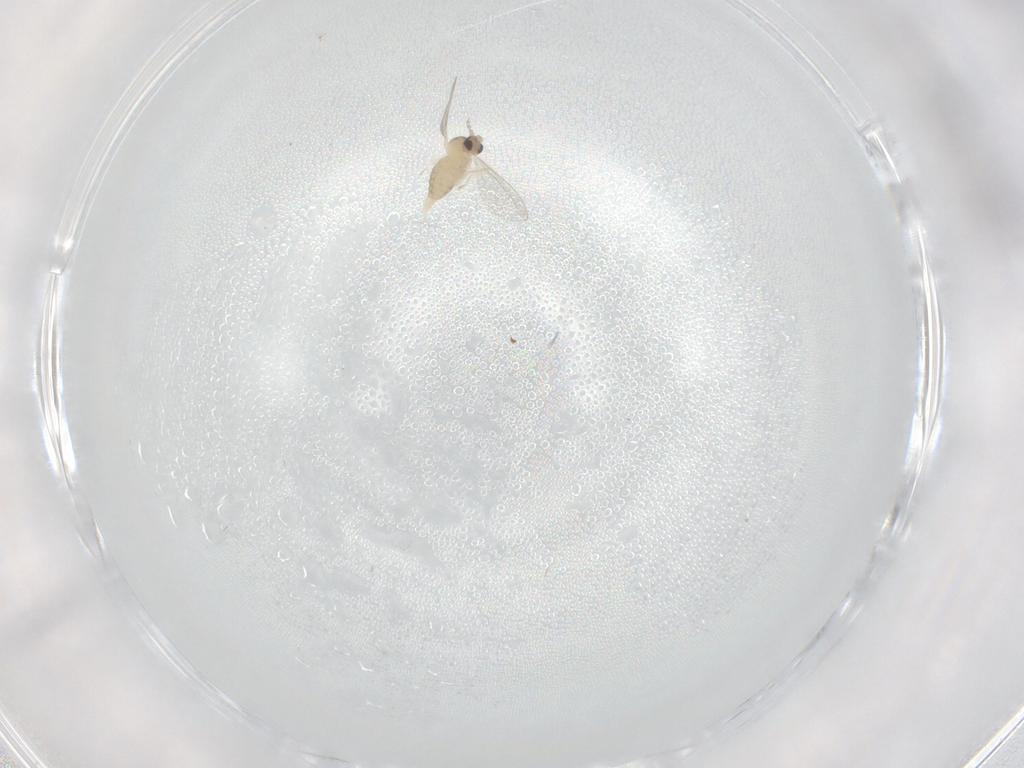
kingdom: Animalia
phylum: Arthropoda
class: Insecta
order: Diptera
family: Cecidomyiidae
